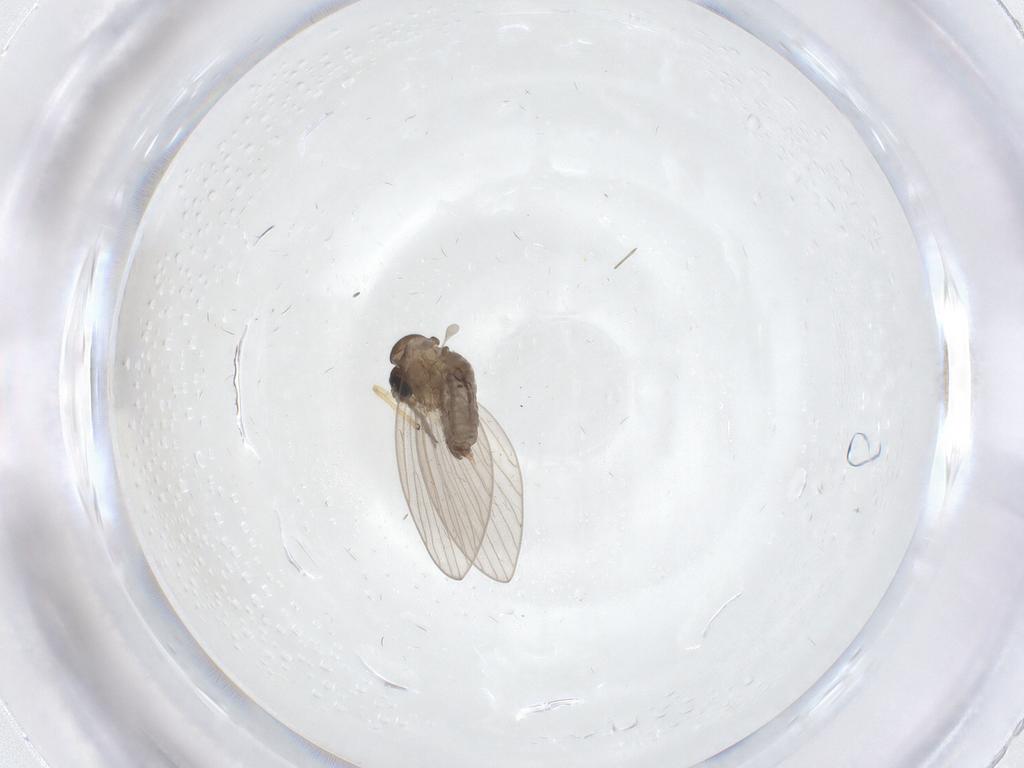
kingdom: Animalia
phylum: Arthropoda
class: Insecta
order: Diptera
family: Chironomidae
